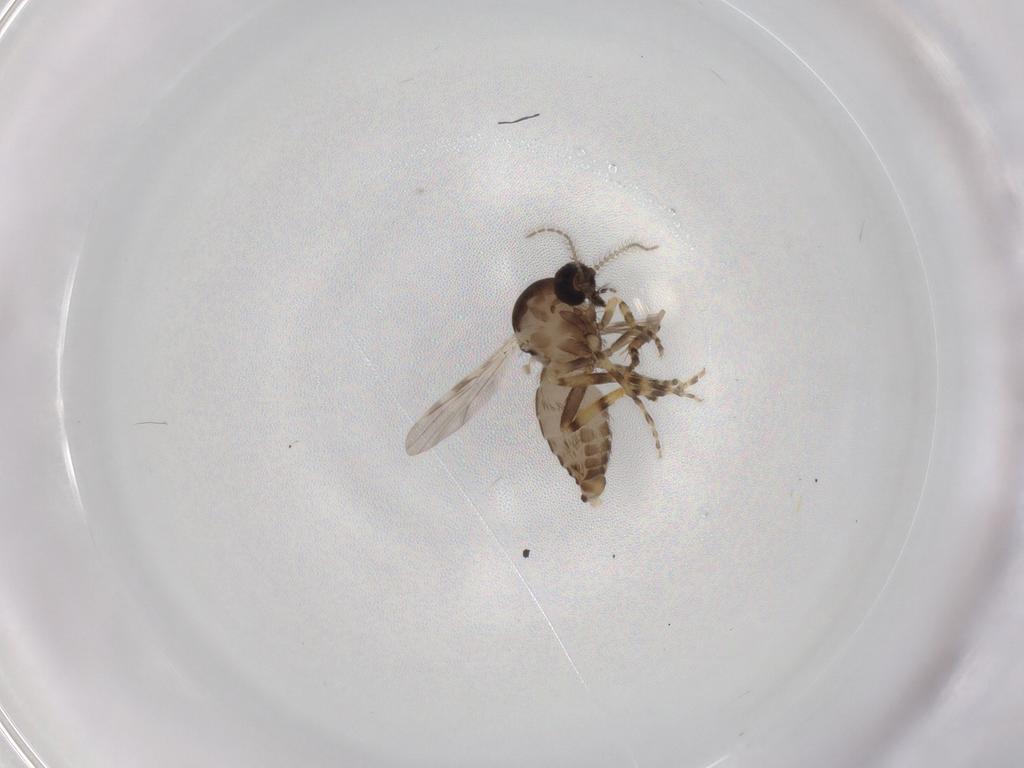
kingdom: Animalia
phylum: Arthropoda
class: Insecta
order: Diptera
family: Ceratopogonidae
